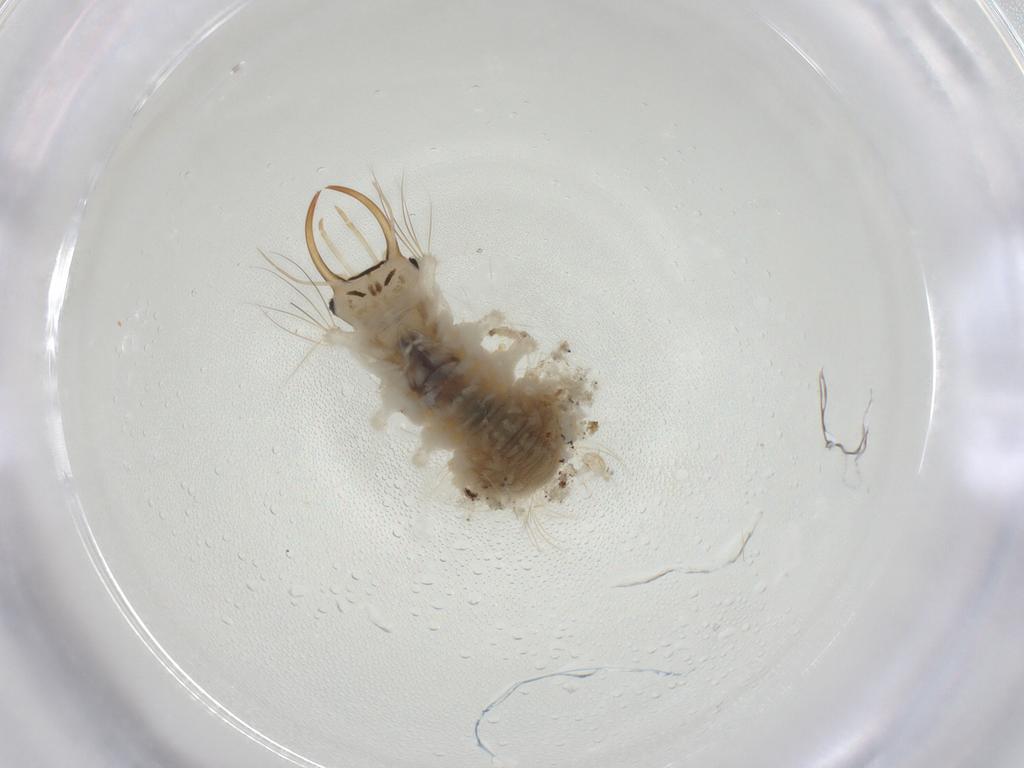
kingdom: Animalia
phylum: Arthropoda
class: Insecta
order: Neuroptera
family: Chrysopidae
